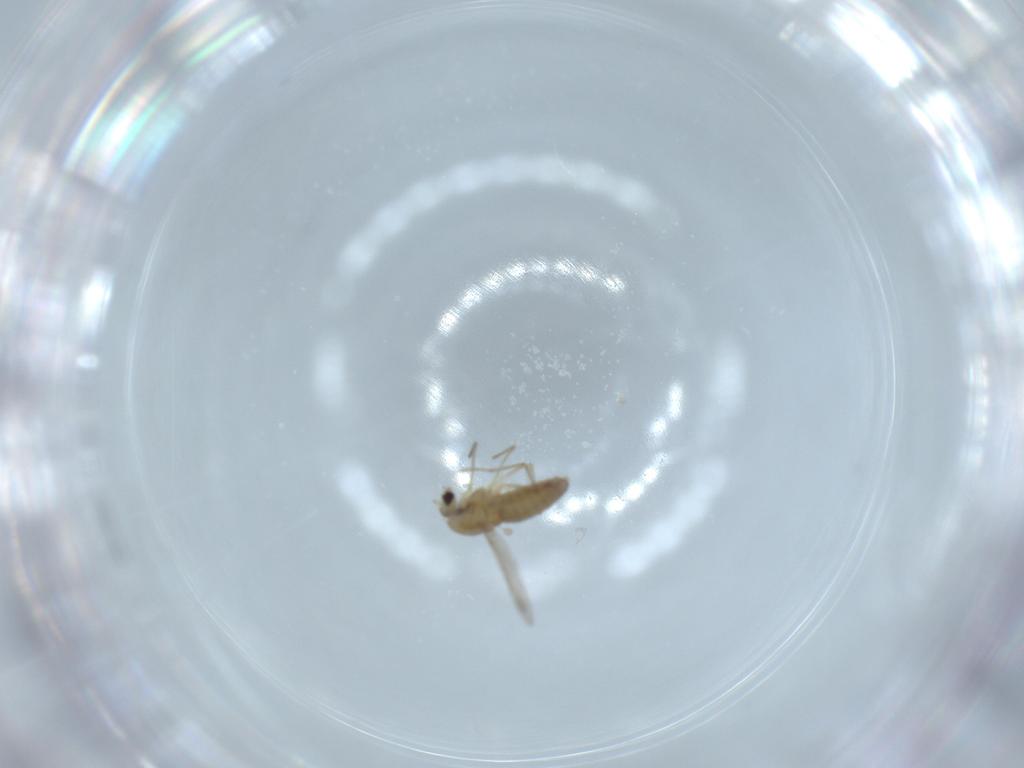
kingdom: Animalia
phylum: Arthropoda
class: Insecta
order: Diptera
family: Chironomidae
